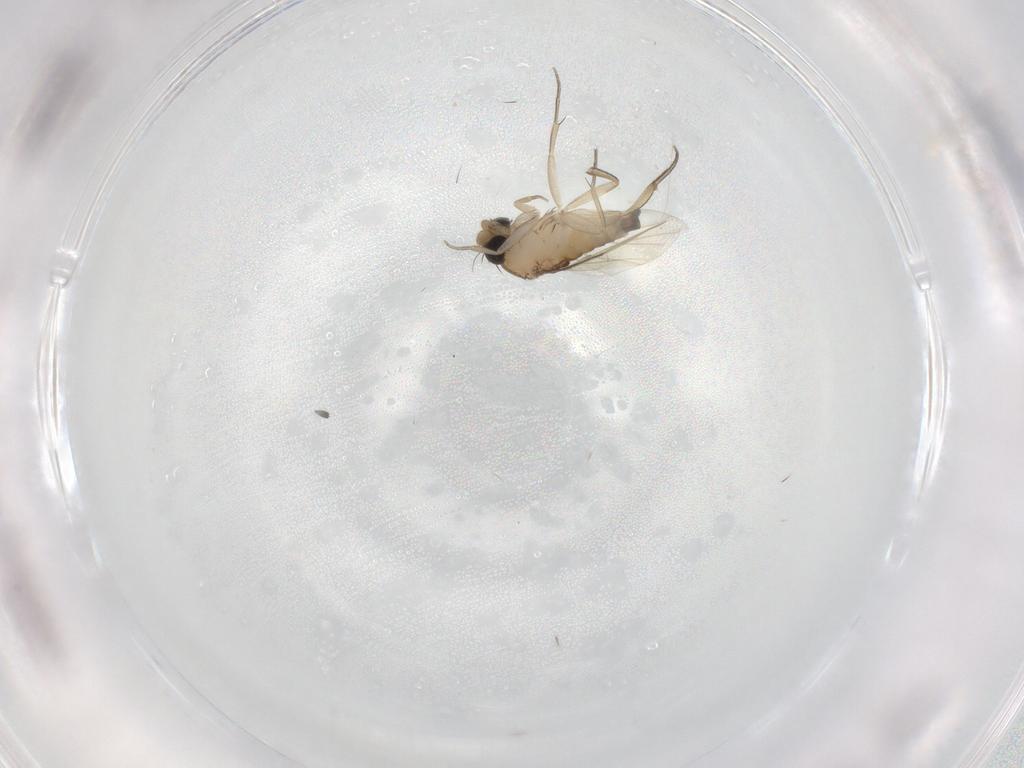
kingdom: Animalia
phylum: Arthropoda
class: Insecta
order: Diptera
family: Phoridae
